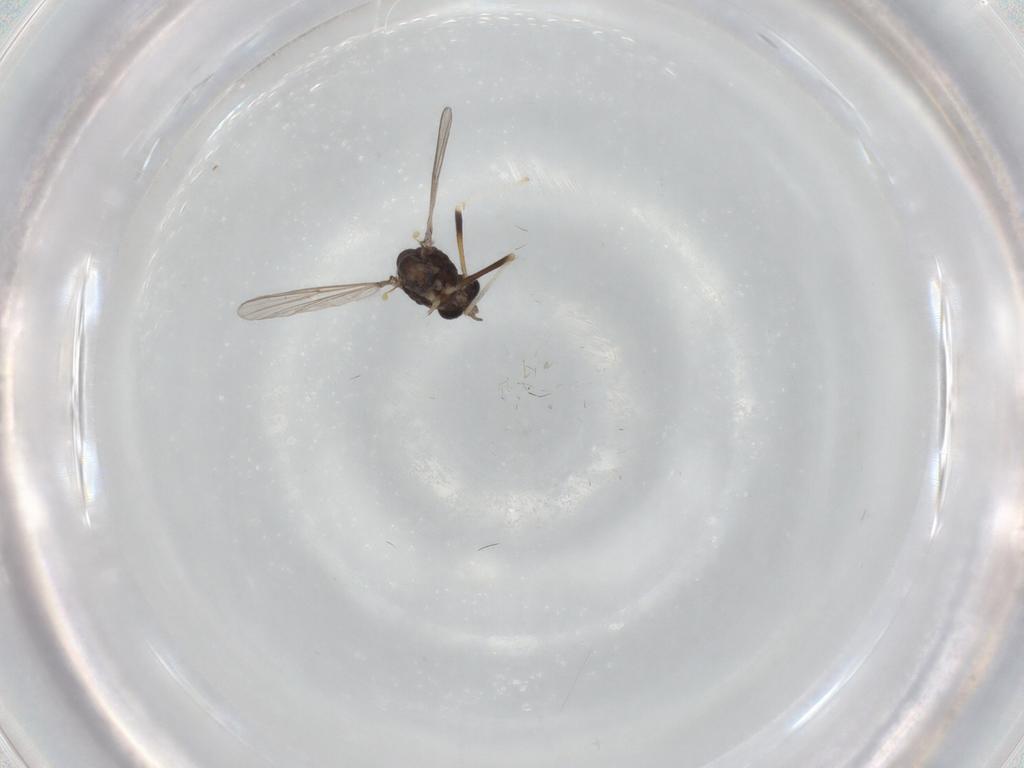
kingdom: Animalia
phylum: Arthropoda
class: Insecta
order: Diptera
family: Chironomidae
